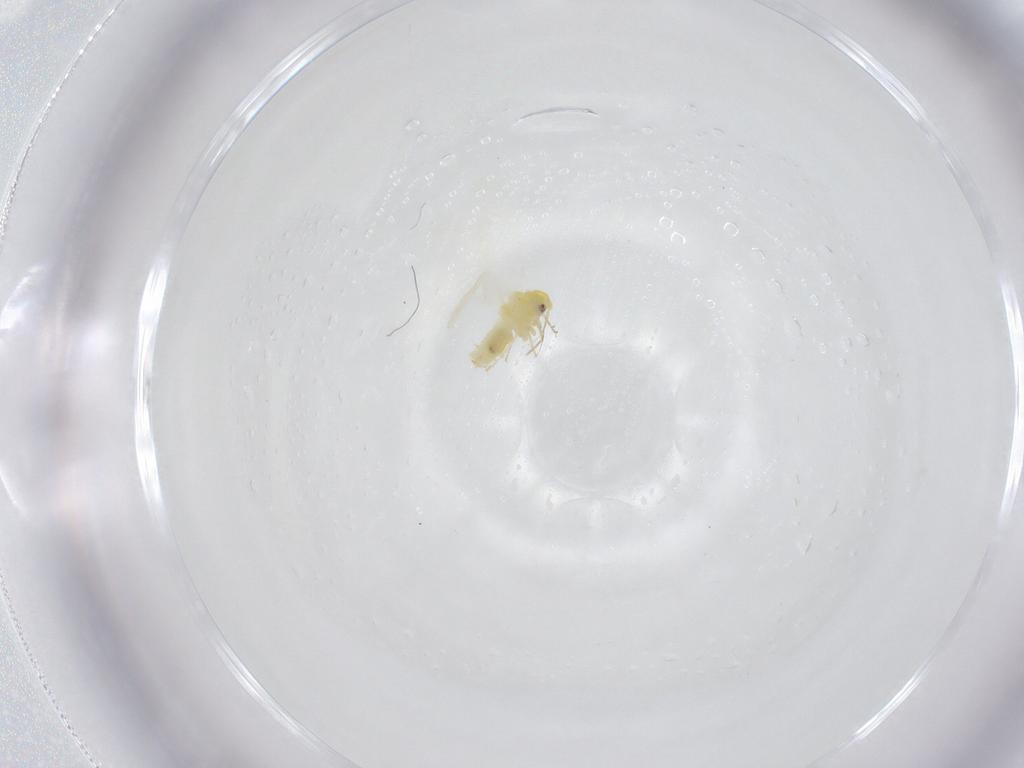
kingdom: Animalia
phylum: Arthropoda
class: Insecta
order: Hemiptera
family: Aleyrodidae
